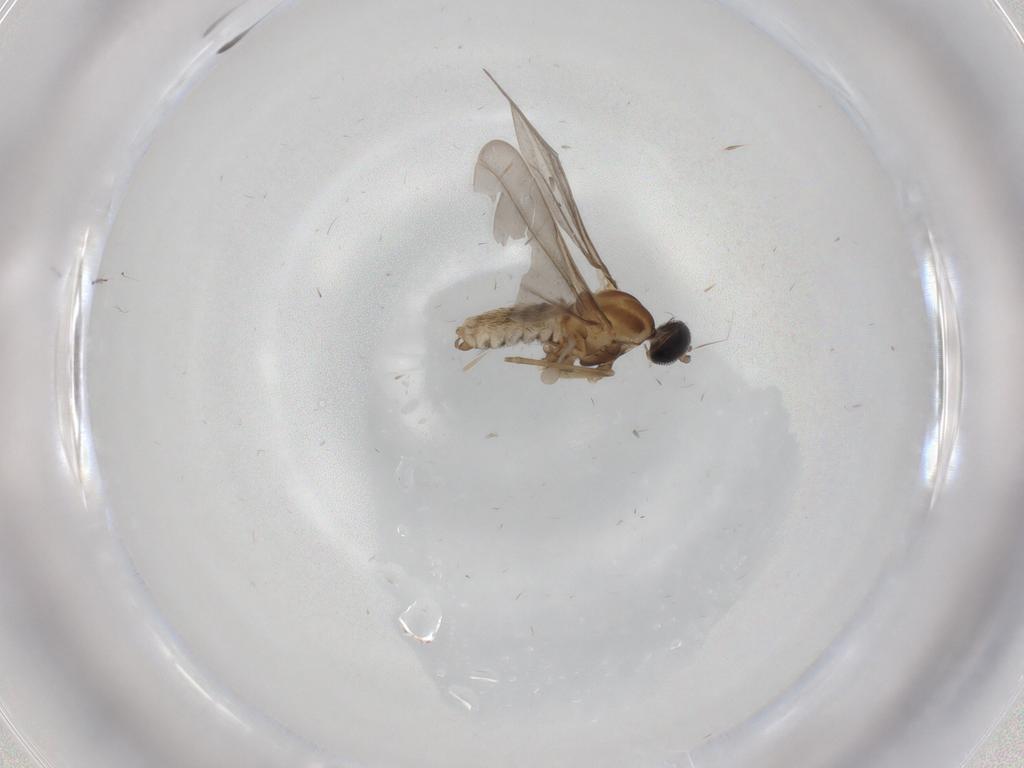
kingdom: Animalia
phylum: Arthropoda
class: Insecta
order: Diptera
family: Cecidomyiidae
